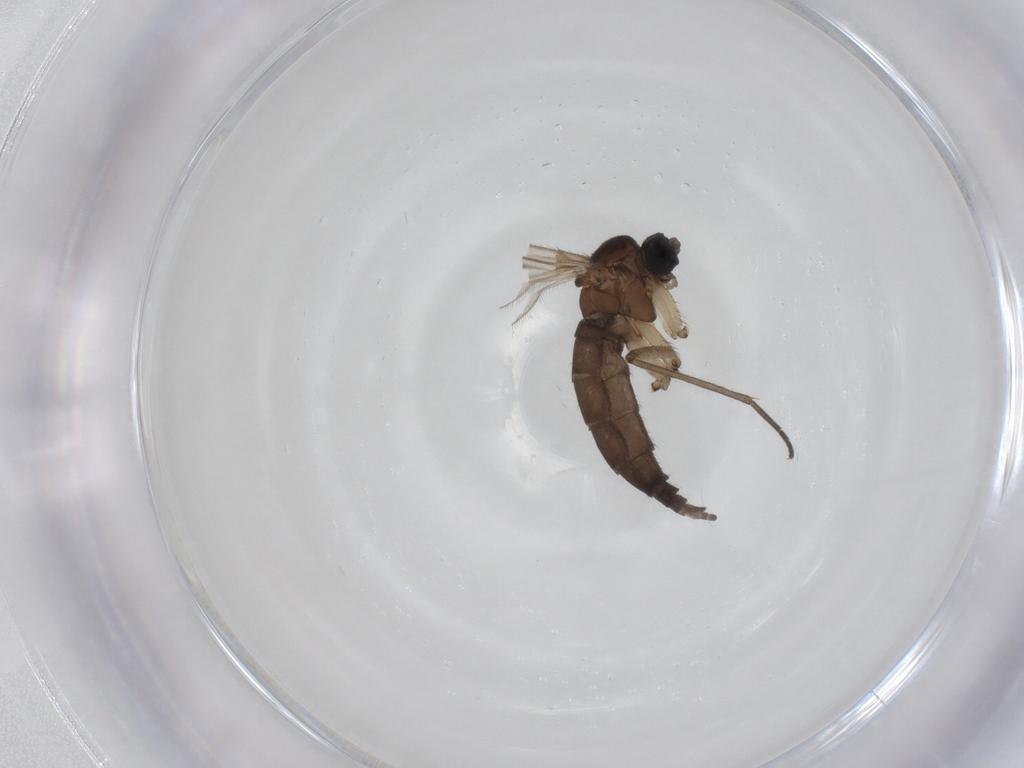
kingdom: Animalia
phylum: Arthropoda
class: Insecta
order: Diptera
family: Sciaridae
